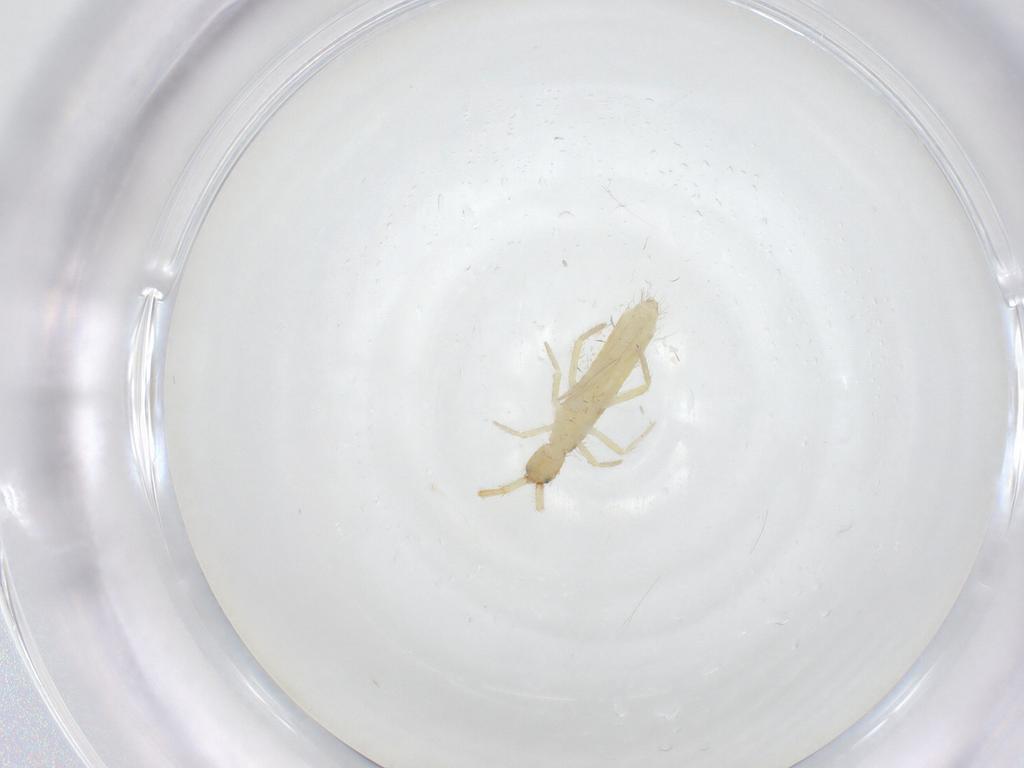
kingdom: Animalia
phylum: Arthropoda
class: Collembola
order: Entomobryomorpha
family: Entomobryidae
